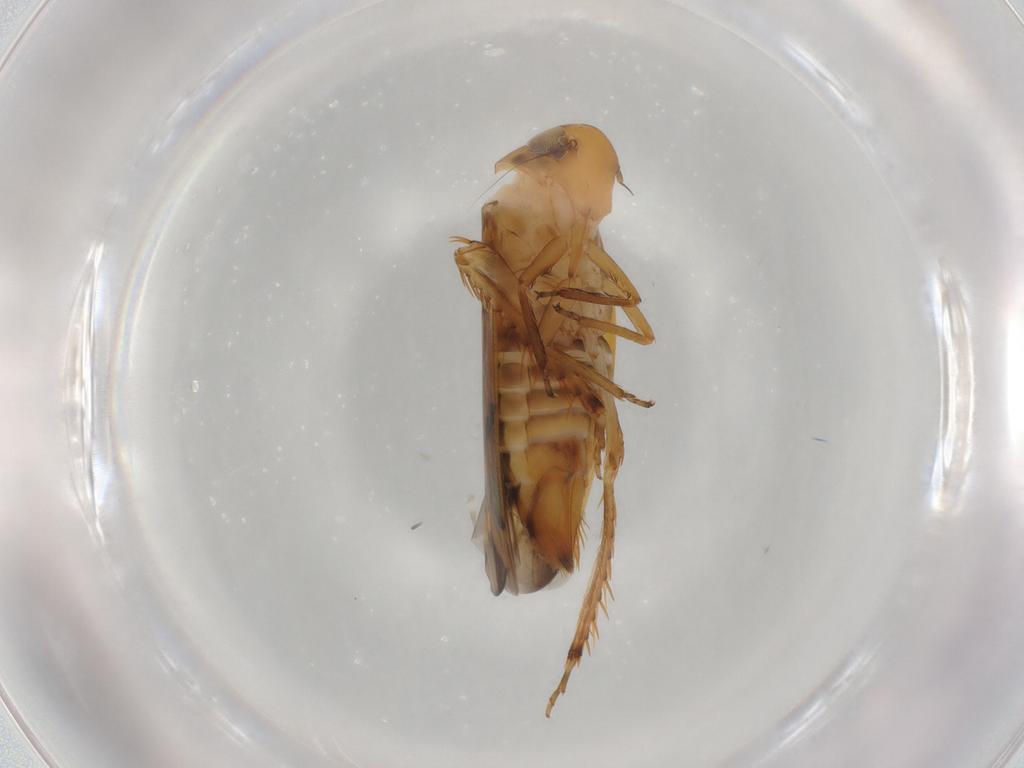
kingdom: Animalia
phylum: Arthropoda
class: Insecta
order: Hemiptera
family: Cicadellidae
